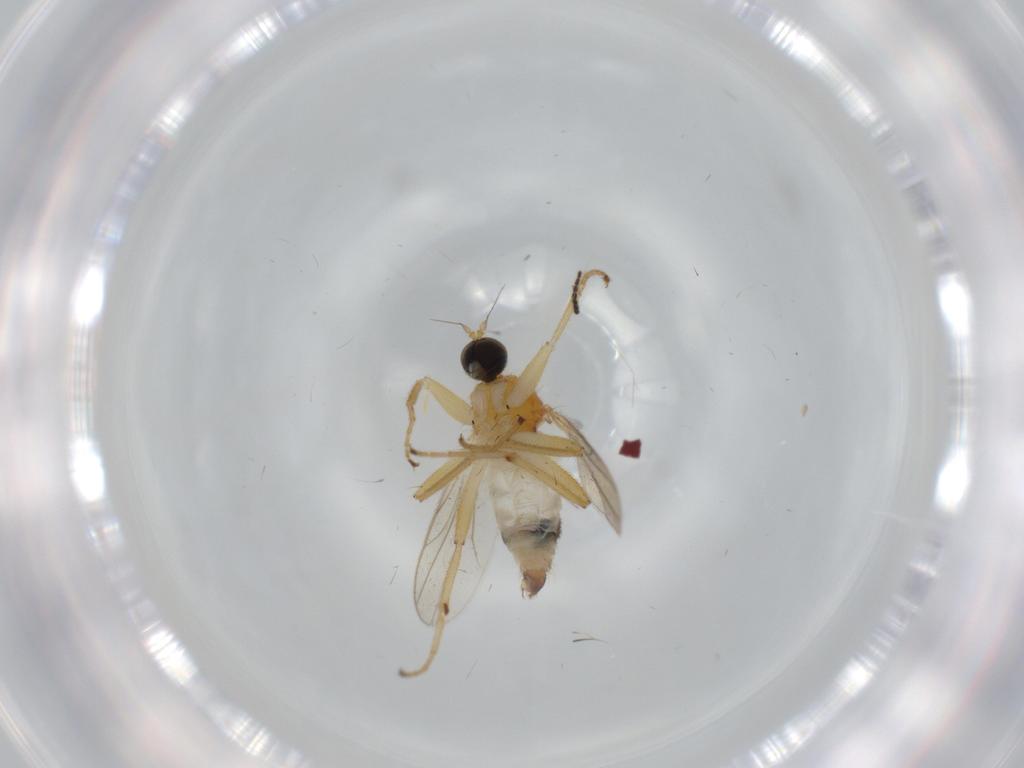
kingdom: Animalia
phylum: Arthropoda
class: Insecta
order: Diptera
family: Hybotidae
